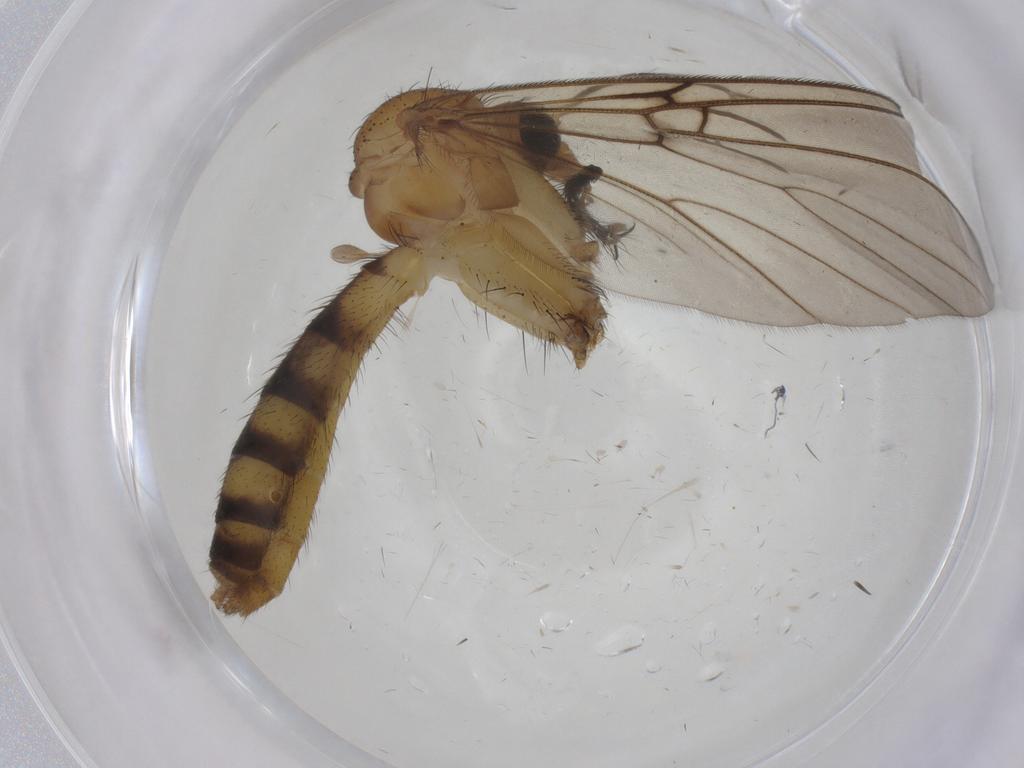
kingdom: Animalia
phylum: Arthropoda
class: Insecta
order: Diptera
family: Mycetophilidae
